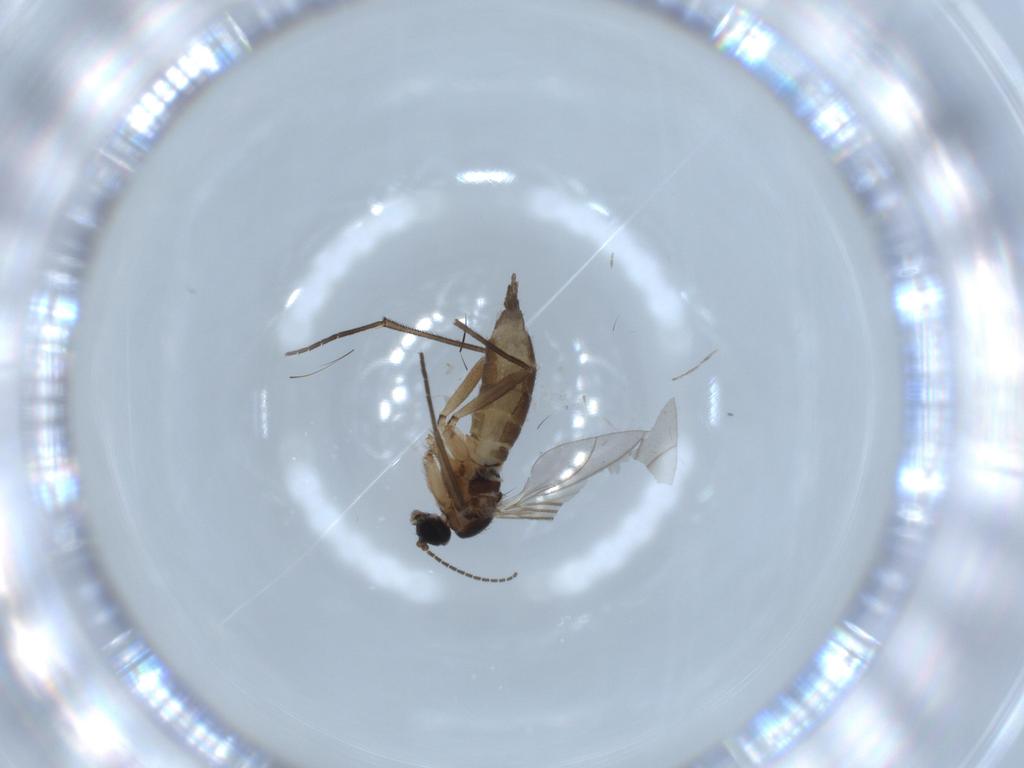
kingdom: Animalia
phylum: Arthropoda
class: Insecta
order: Diptera
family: Sciaridae
